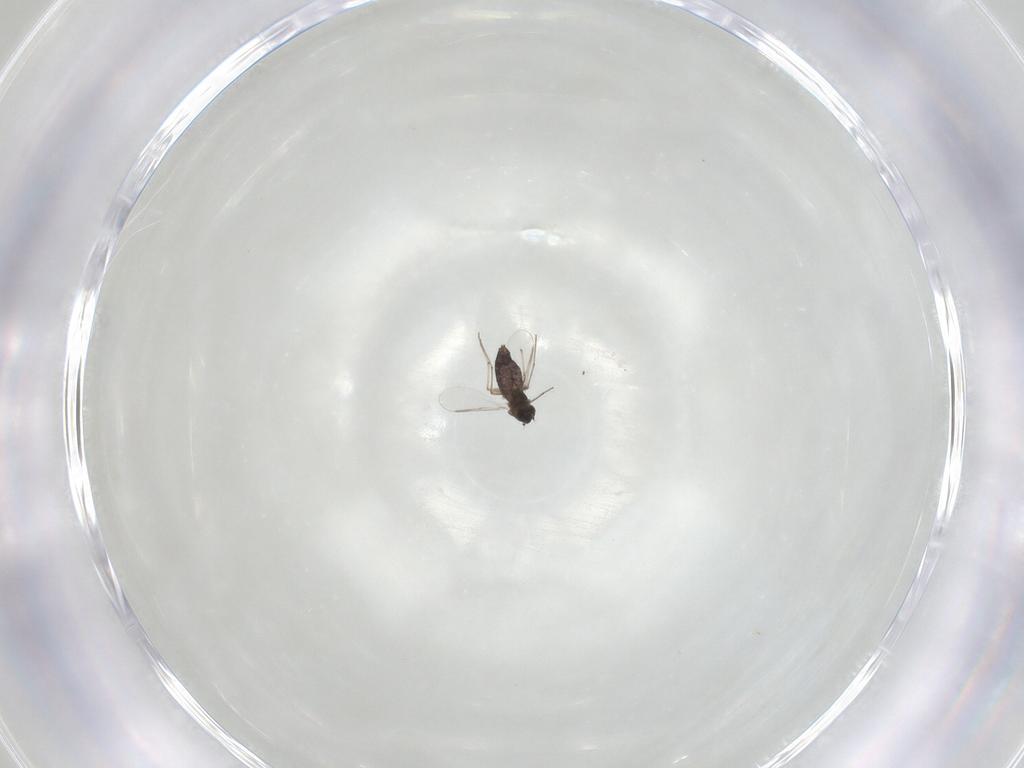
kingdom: Animalia
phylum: Arthropoda
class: Insecta
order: Diptera
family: Chironomidae
